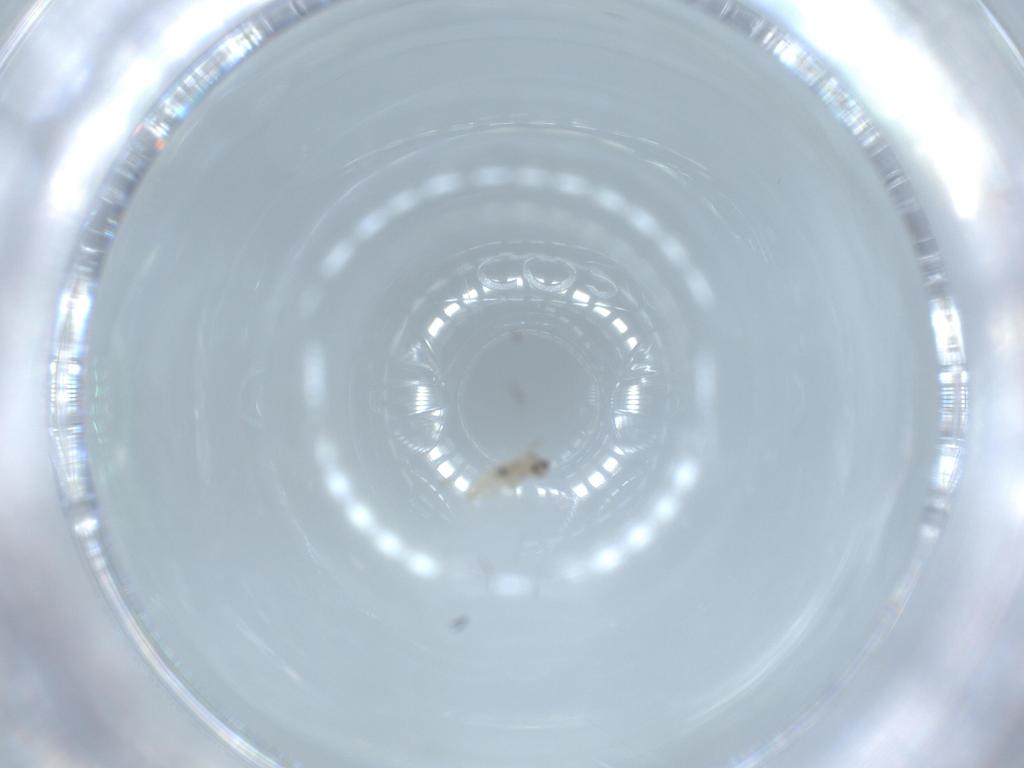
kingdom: Animalia
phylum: Arthropoda
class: Insecta
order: Diptera
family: Cecidomyiidae
